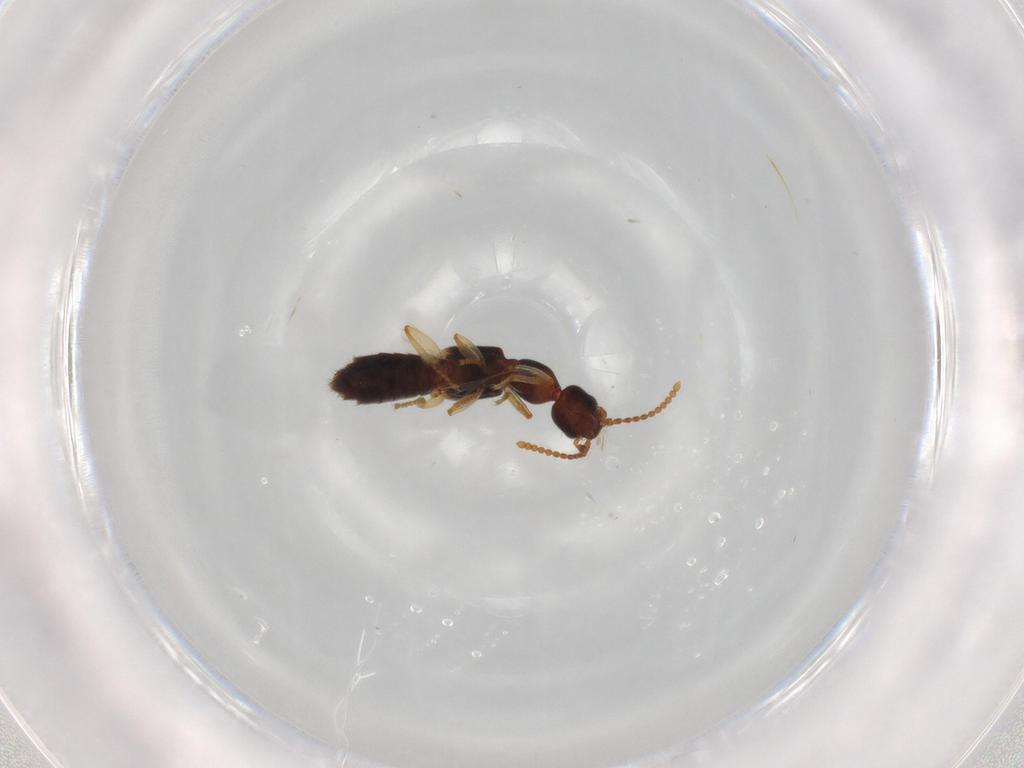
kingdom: Animalia
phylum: Arthropoda
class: Insecta
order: Coleoptera
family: Staphylinidae
